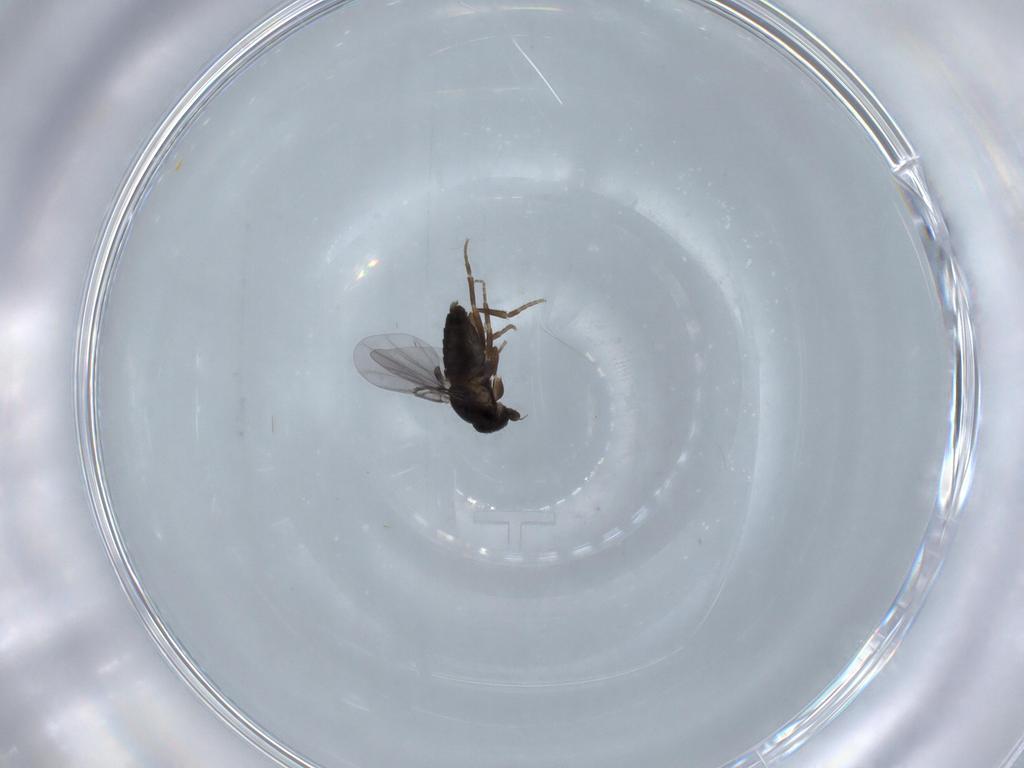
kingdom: Animalia
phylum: Arthropoda
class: Insecta
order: Diptera
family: Phoridae
